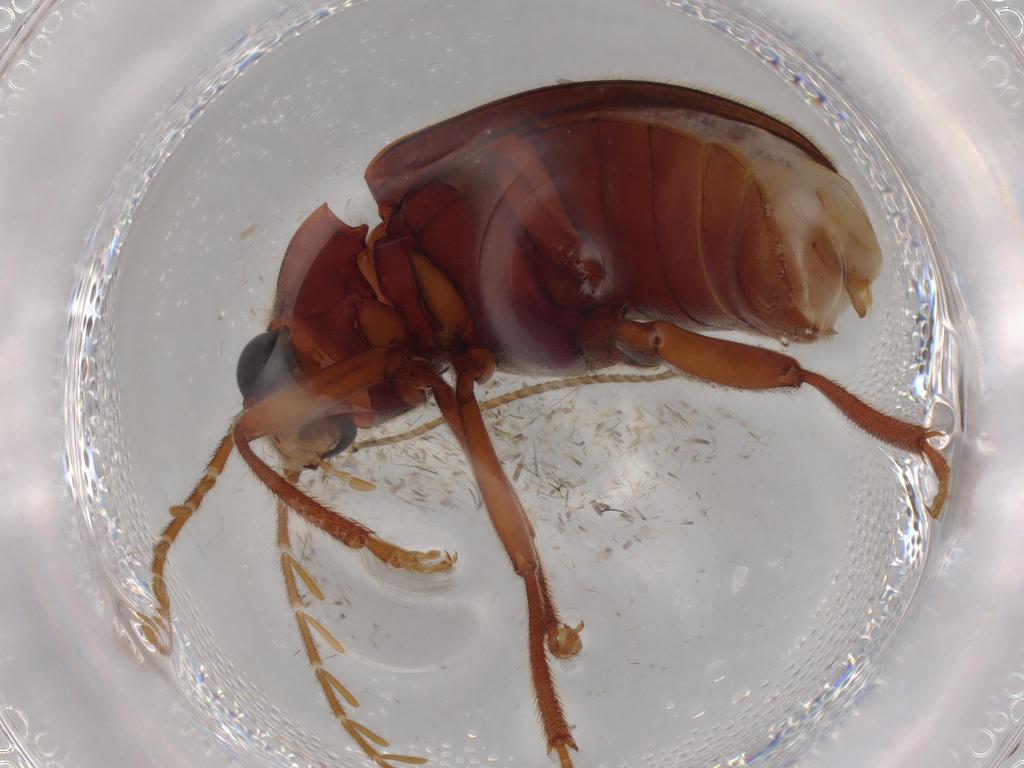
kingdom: Animalia
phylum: Arthropoda
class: Insecta
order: Coleoptera
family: Ptilodactylidae
